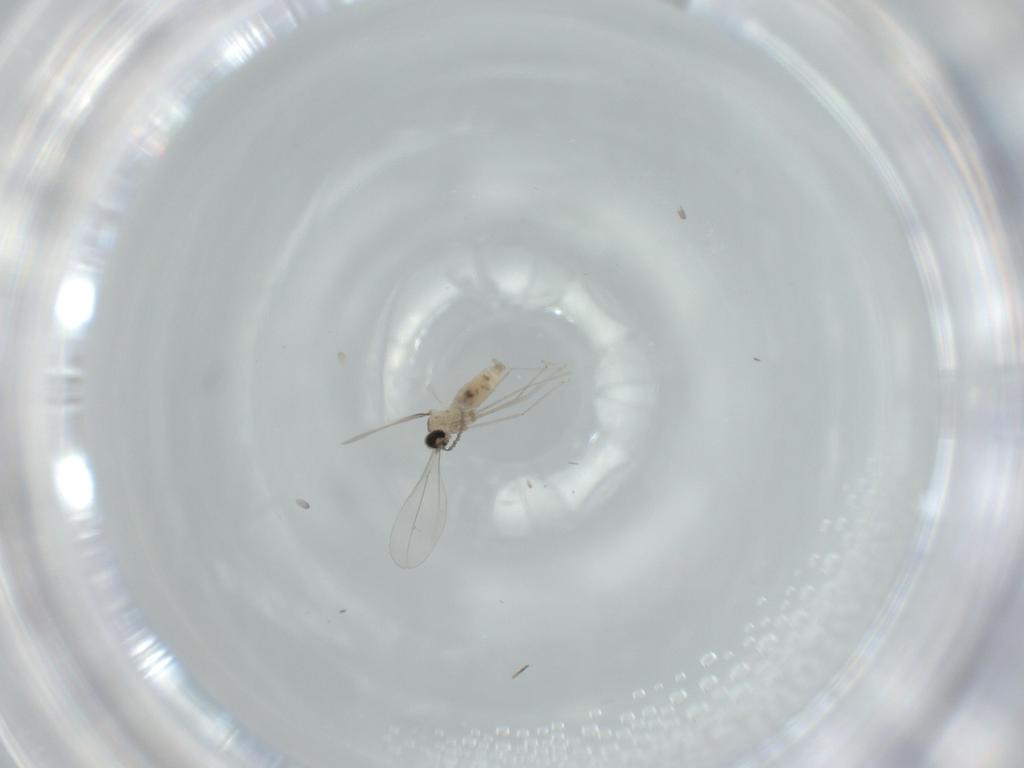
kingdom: Animalia
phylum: Arthropoda
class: Insecta
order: Diptera
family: Cecidomyiidae
